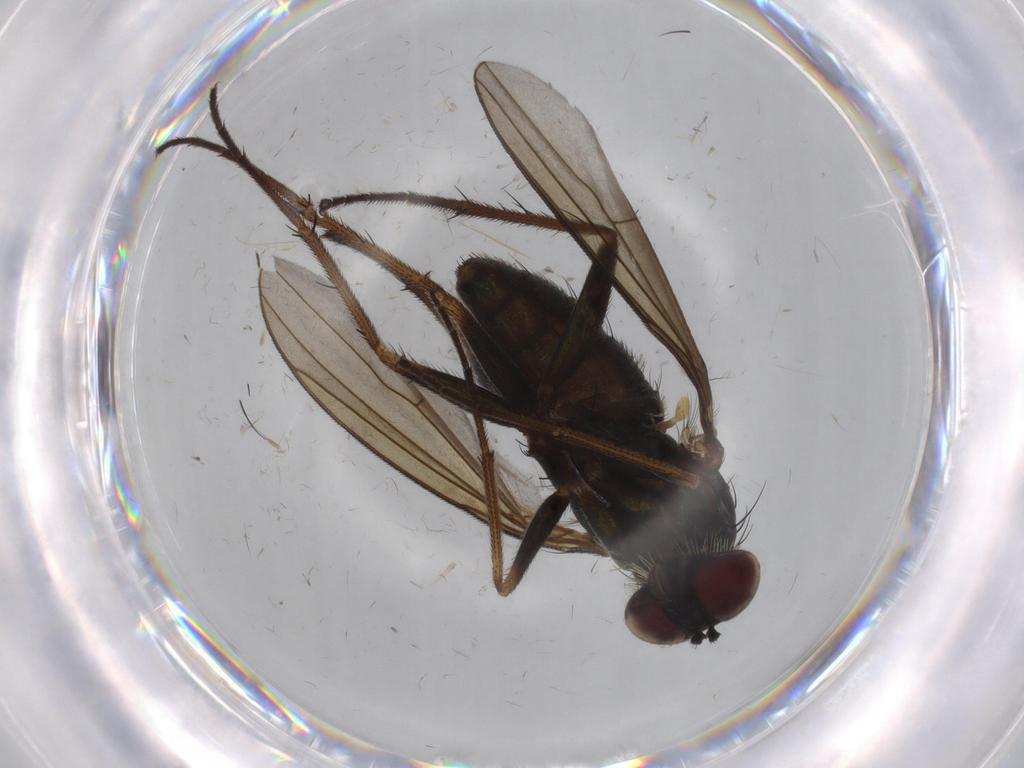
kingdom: Animalia
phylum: Arthropoda
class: Insecta
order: Diptera
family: Dolichopodidae
